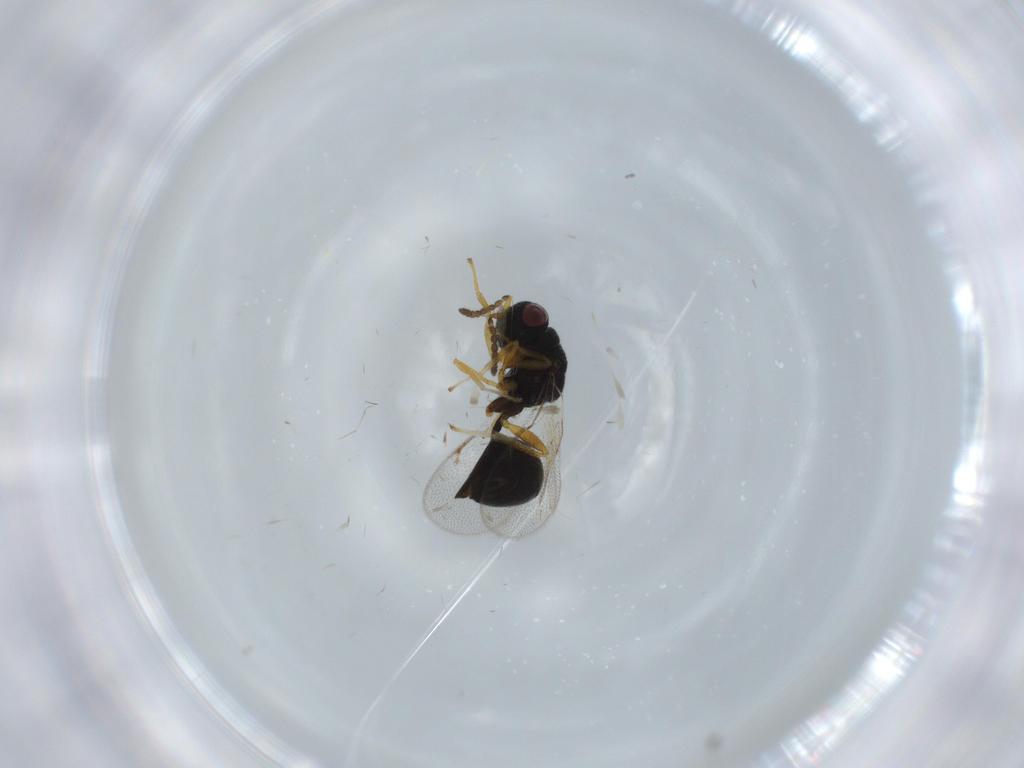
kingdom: Animalia
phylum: Arthropoda
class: Insecta
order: Hymenoptera
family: Eurytomidae
